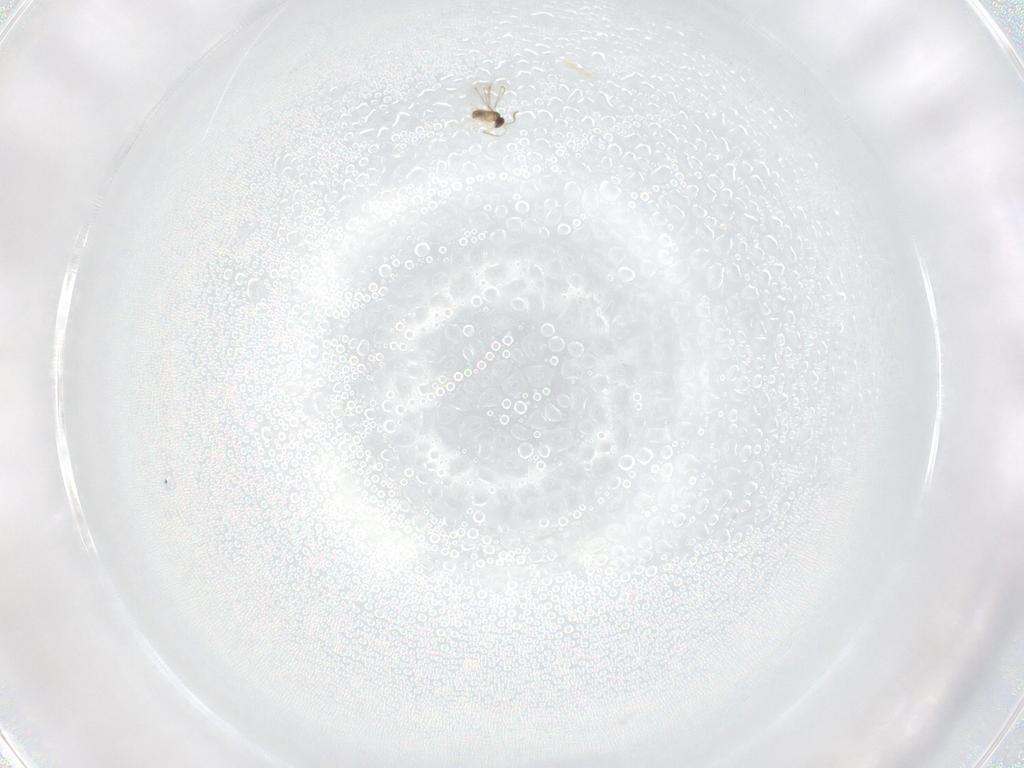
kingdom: Animalia
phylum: Arthropoda
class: Insecta
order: Hymenoptera
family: Bethylidae
